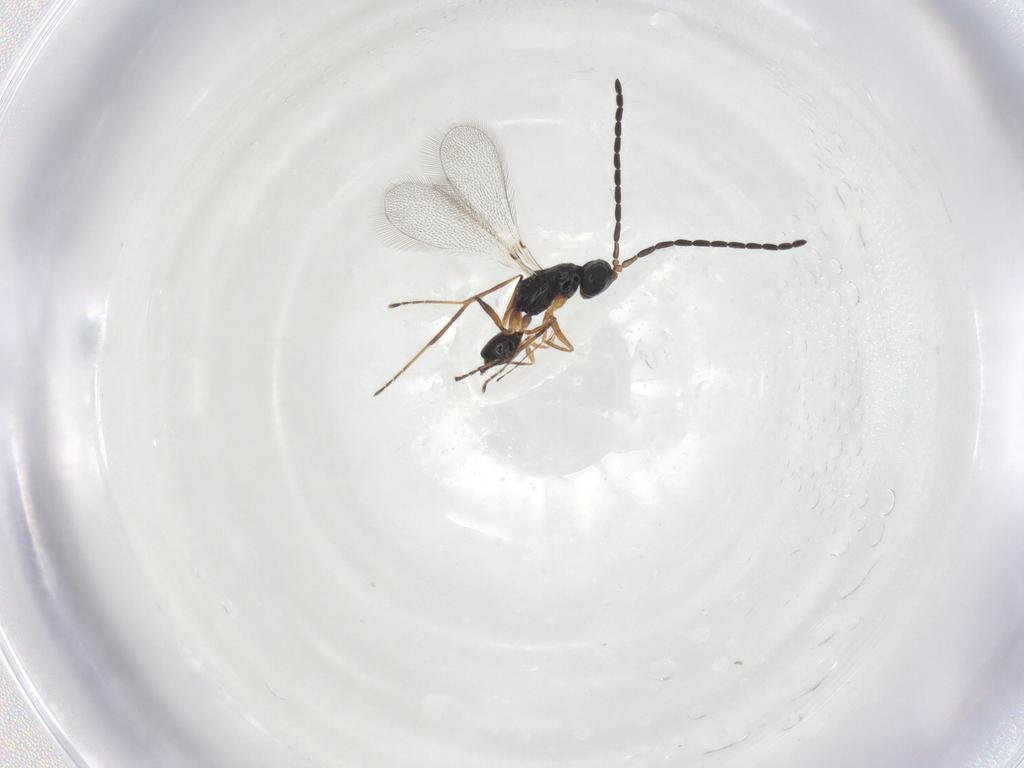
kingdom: Animalia
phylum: Arthropoda
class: Insecta
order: Hymenoptera
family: Mymaridae
